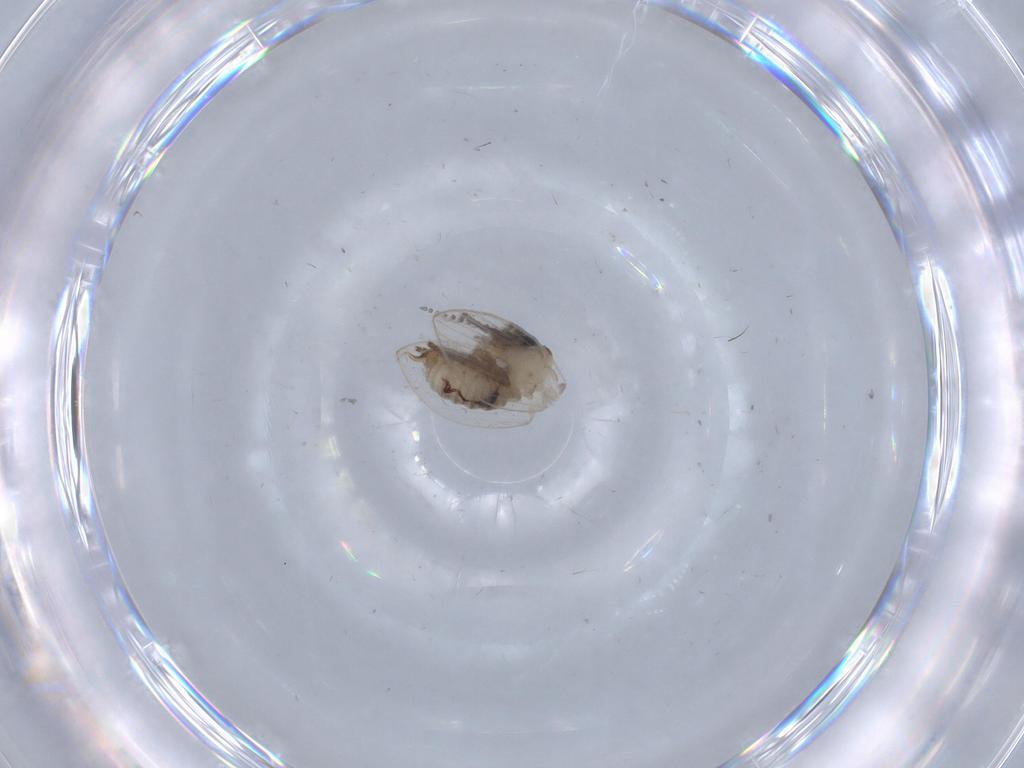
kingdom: Animalia
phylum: Arthropoda
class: Insecta
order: Diptera
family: Psychodidae
